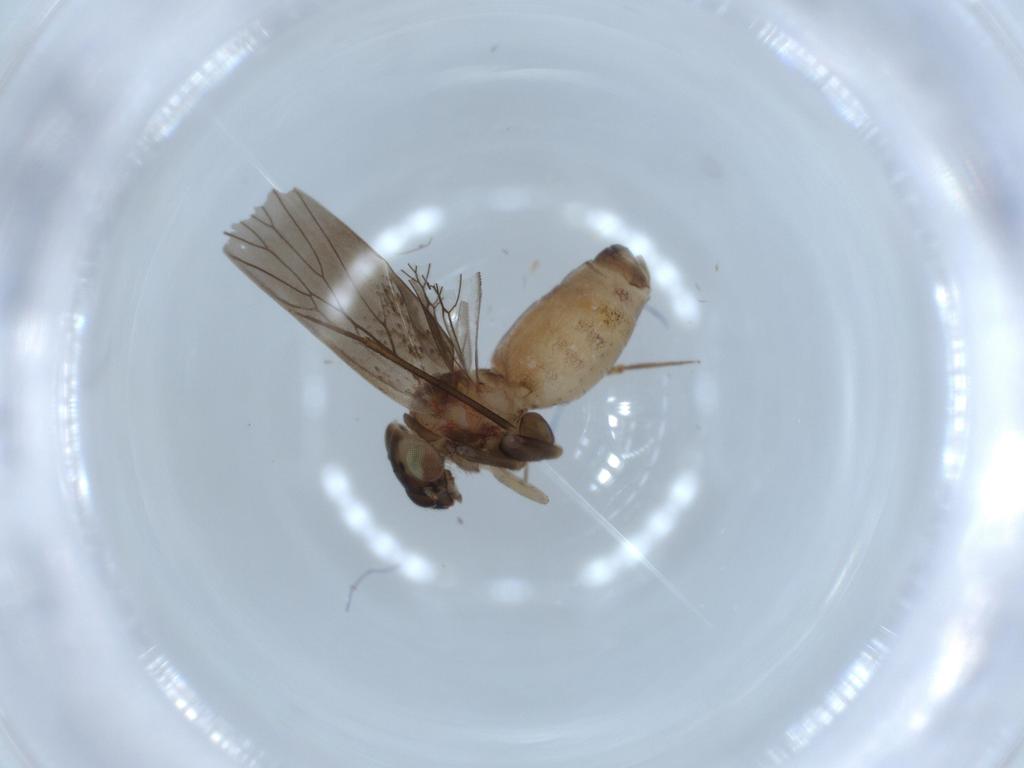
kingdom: Animalia
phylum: Arthropoda
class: Insecta
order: Psocodea
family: Lepidopsocidae
